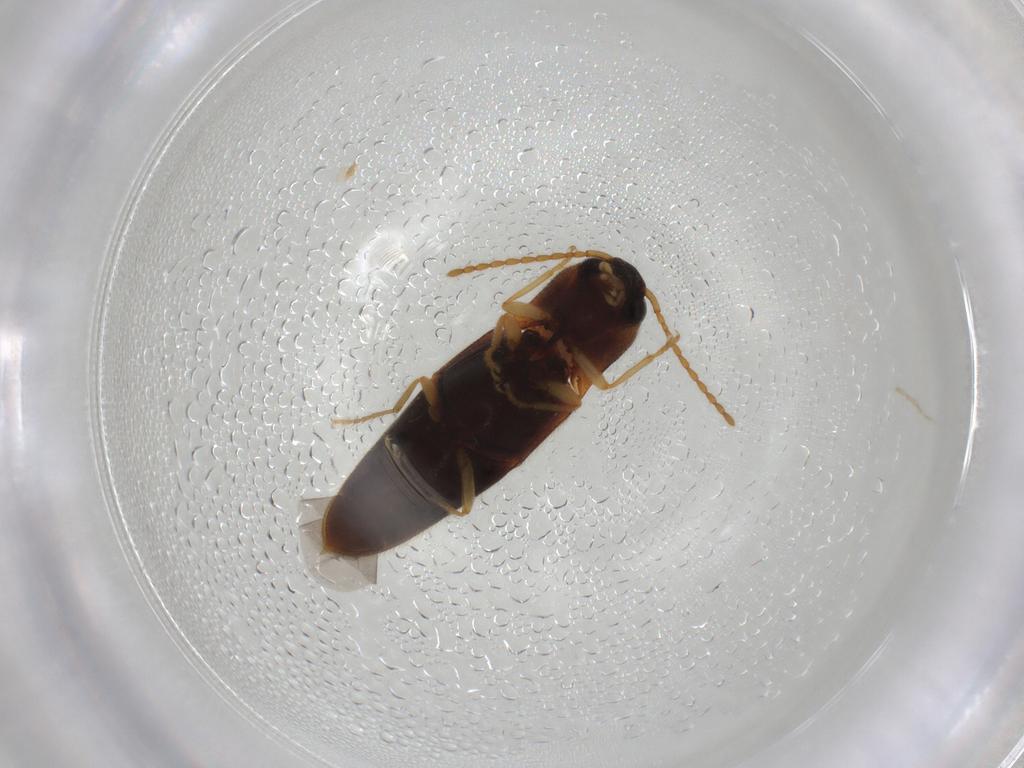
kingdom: Animalia
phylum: Arthropoda
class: Insecta
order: Coleoptera
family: Elateridae
